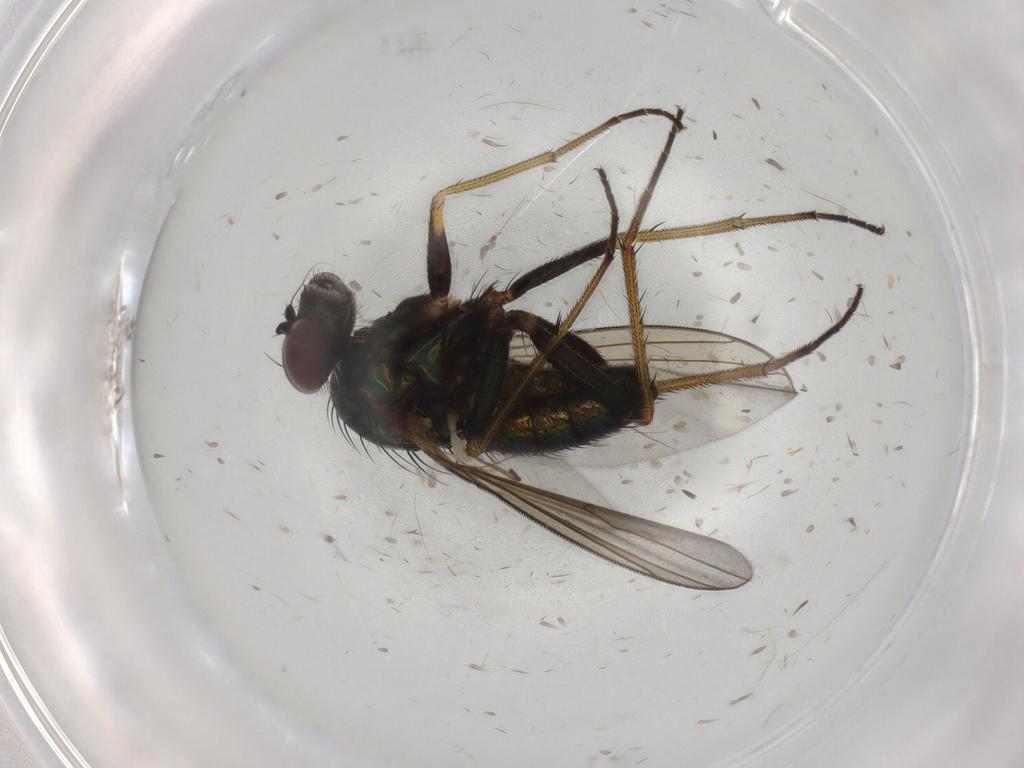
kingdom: Animalia
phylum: Arthropoda
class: Insecta
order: Diptera
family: Dolichopodidae
